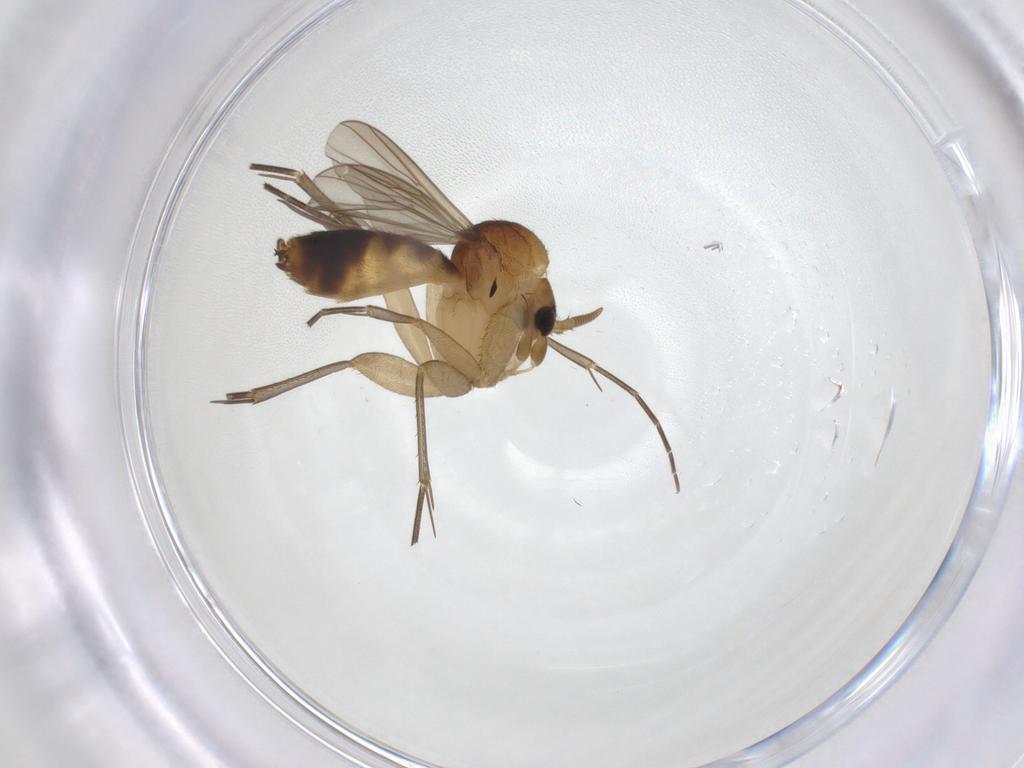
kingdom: Animalia
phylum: Arthropoda
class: Insecta
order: Diptera
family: Mycetophilidae
